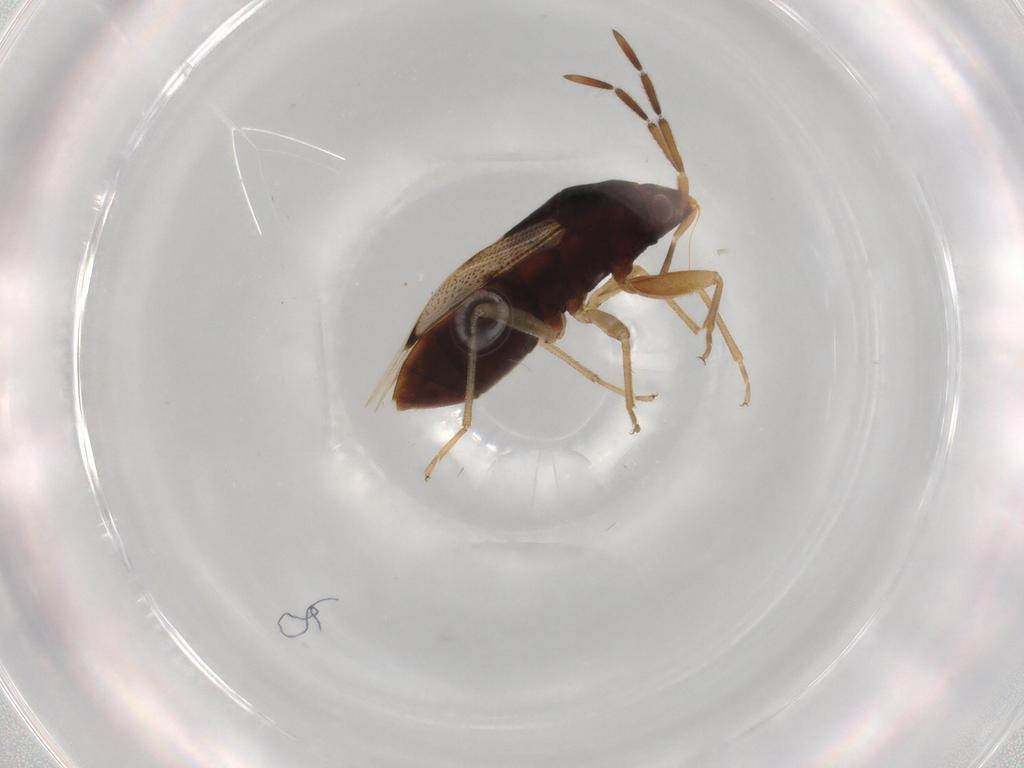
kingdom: Animalia
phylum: Arthropoda
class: Insecta
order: Hemiptera
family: Rhyparochromidae
